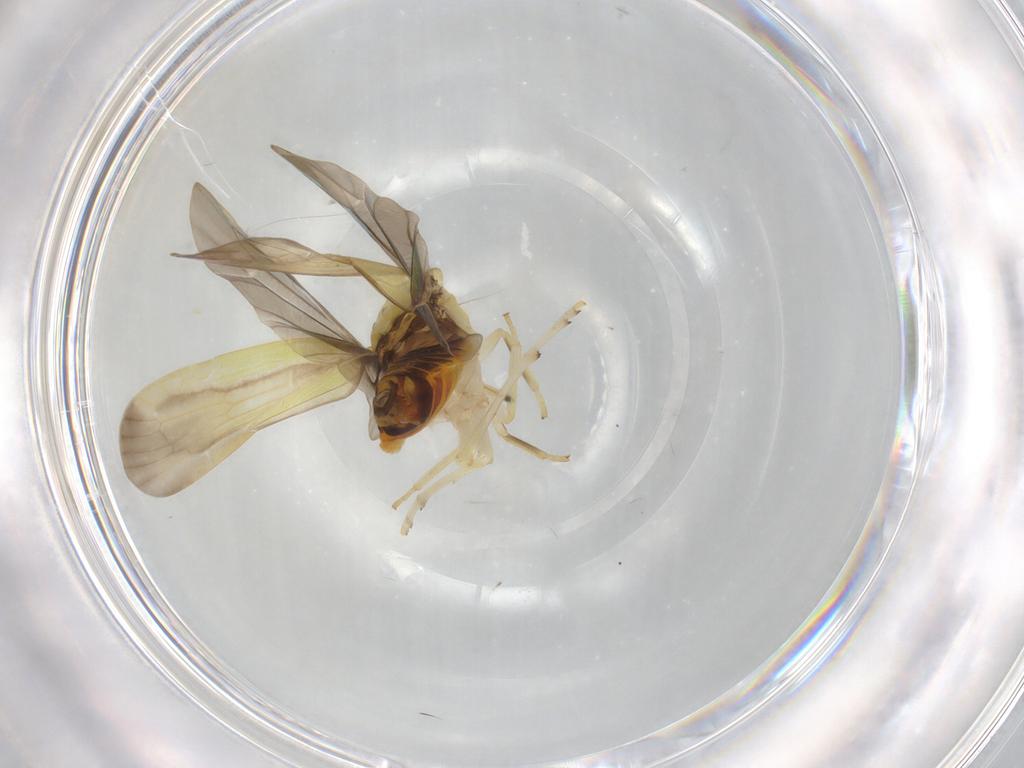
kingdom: Animalia
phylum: Arthropoda
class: Insecta
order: Hemiptera
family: Achilidae
